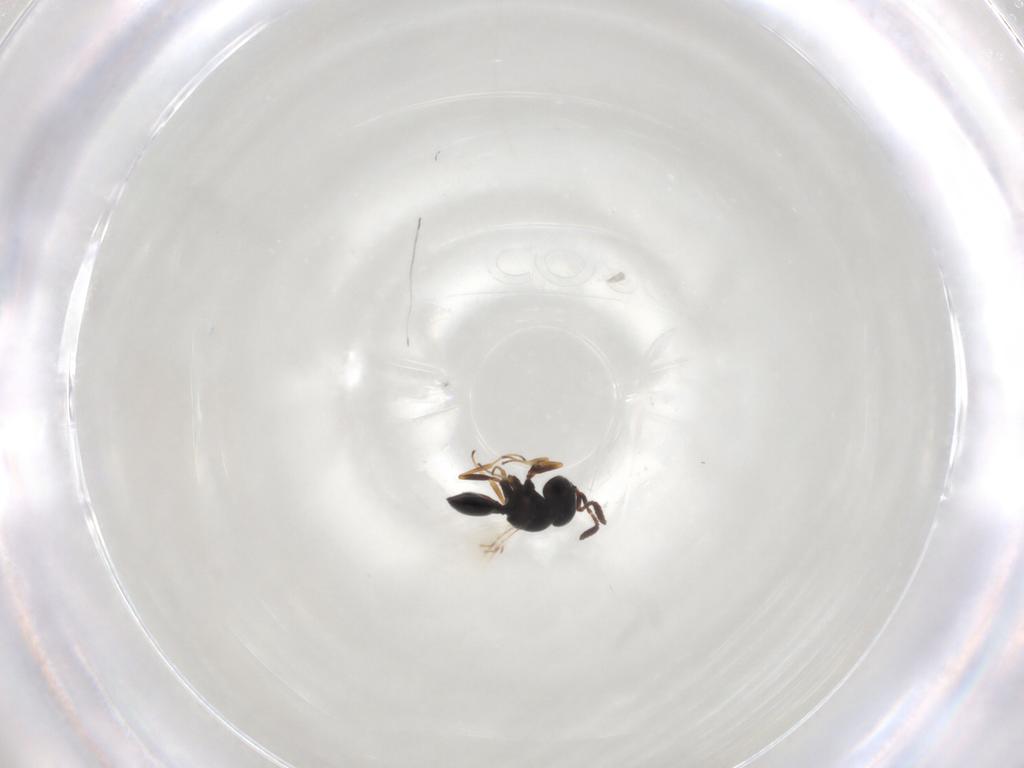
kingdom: Animalia
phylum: Arthropoda
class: Insecta
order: Hymenoptera
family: Scelionidae
